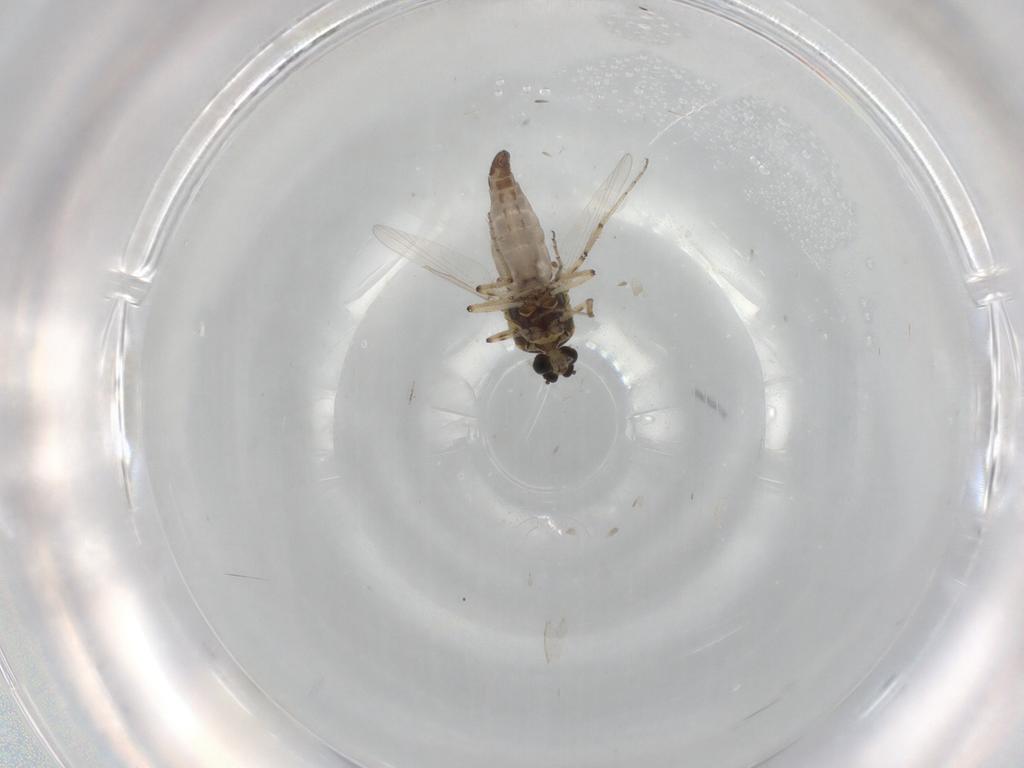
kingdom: Animalia
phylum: Arthropoda
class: Insecta
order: Diptera
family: Ceratopogonidae
